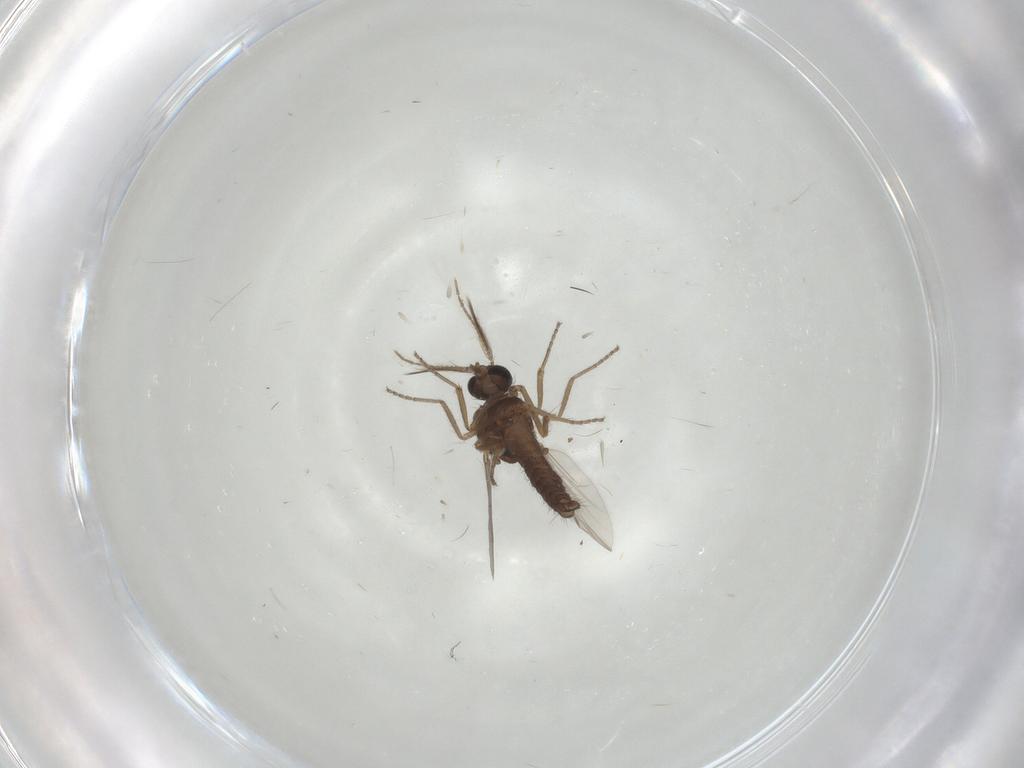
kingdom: Animalia
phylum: Arthropoda
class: Insecta
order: Diptera
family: Ceratopogonidae
